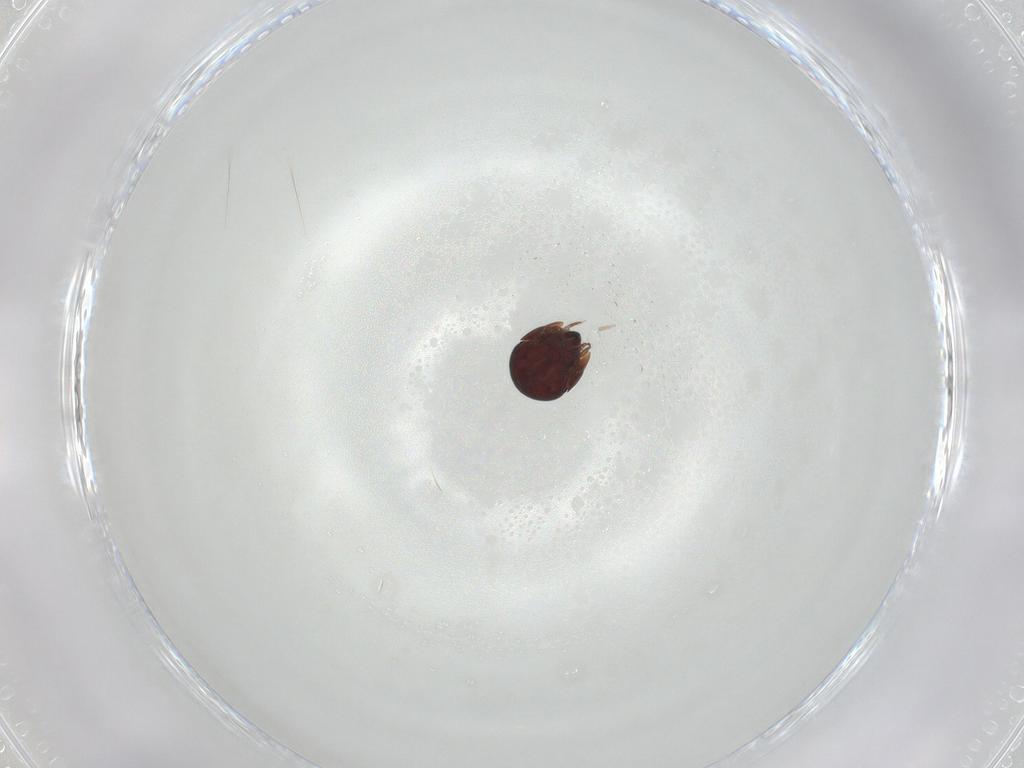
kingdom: Animalia
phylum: Arthropoda
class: Arachnida
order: Sarcoptiformes
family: Galumnidae
